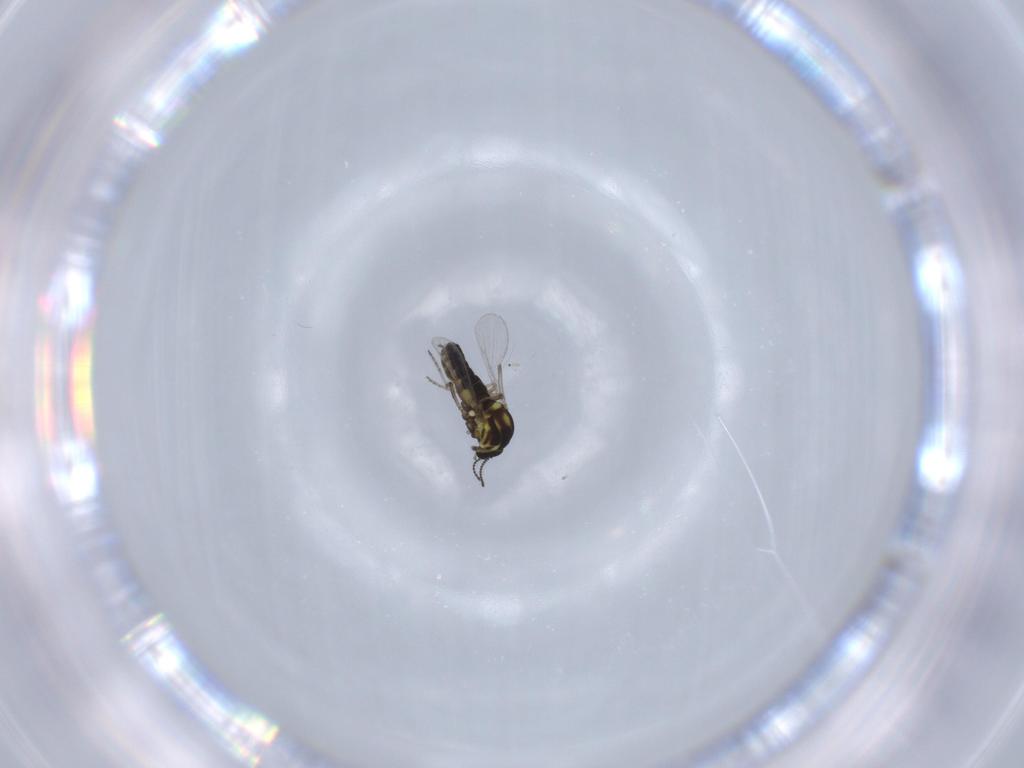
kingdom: Animalia
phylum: Arthropoda
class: Insecta
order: Diptera
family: Ceratopogonidae
